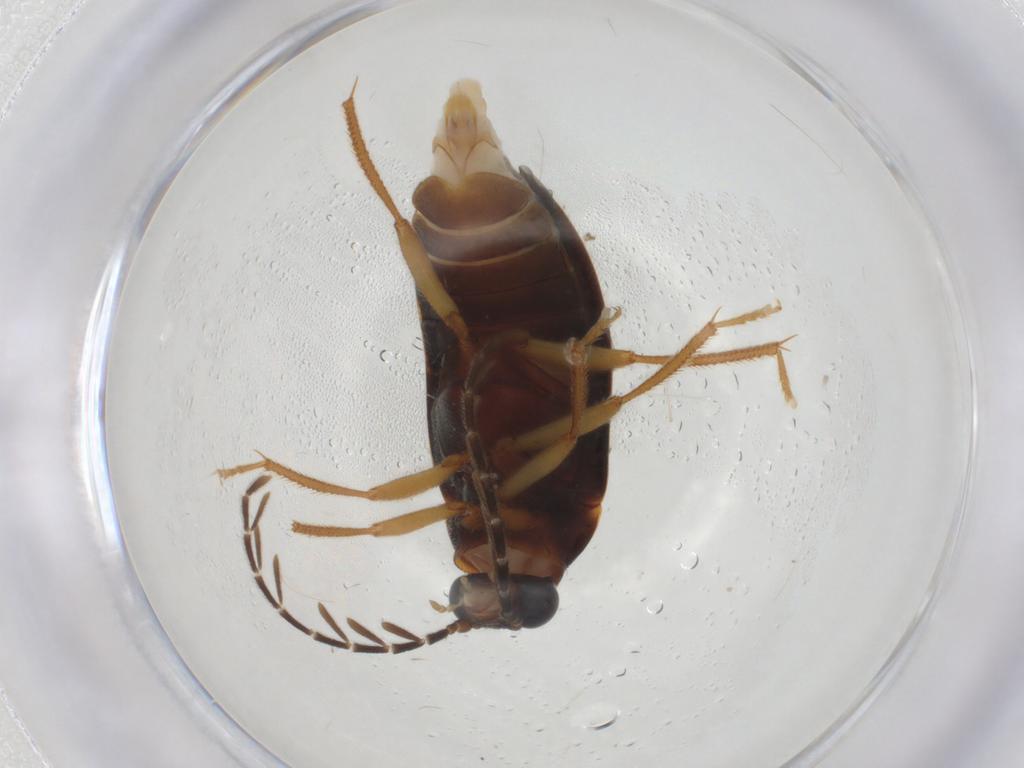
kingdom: Animalia
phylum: Arthropoda
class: Insecta
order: Coleoptera
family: Ptilodactylidae
